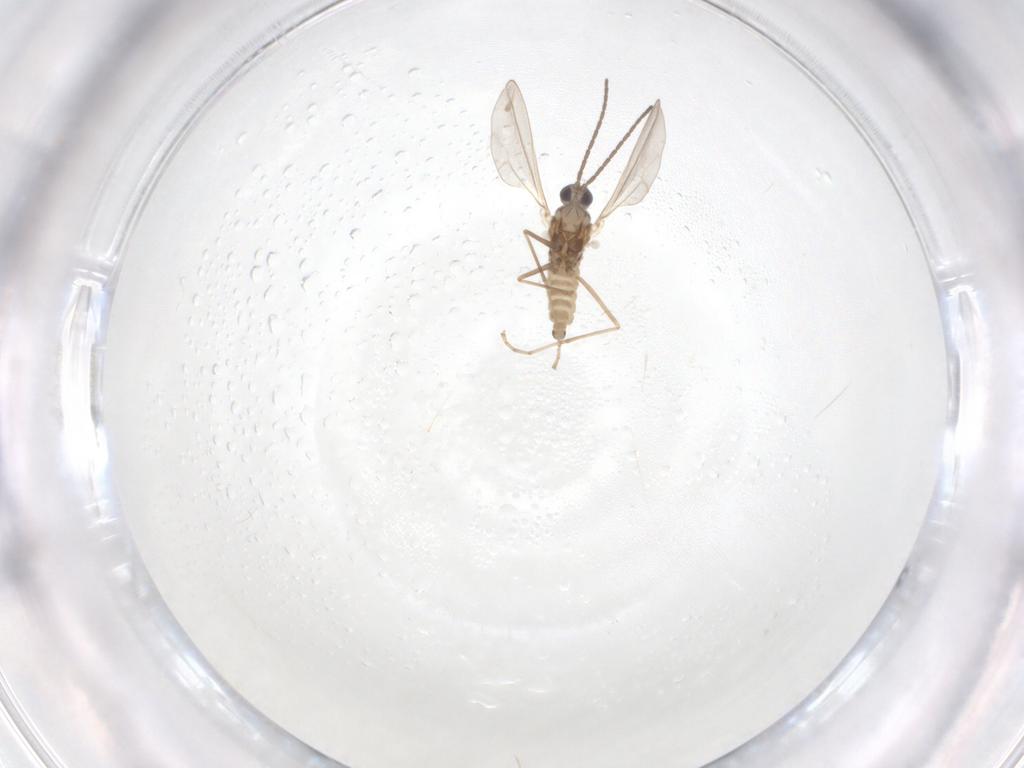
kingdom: Animalia
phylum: Arthropoda
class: Insecta
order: Diptera
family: Cecidomyiidae
